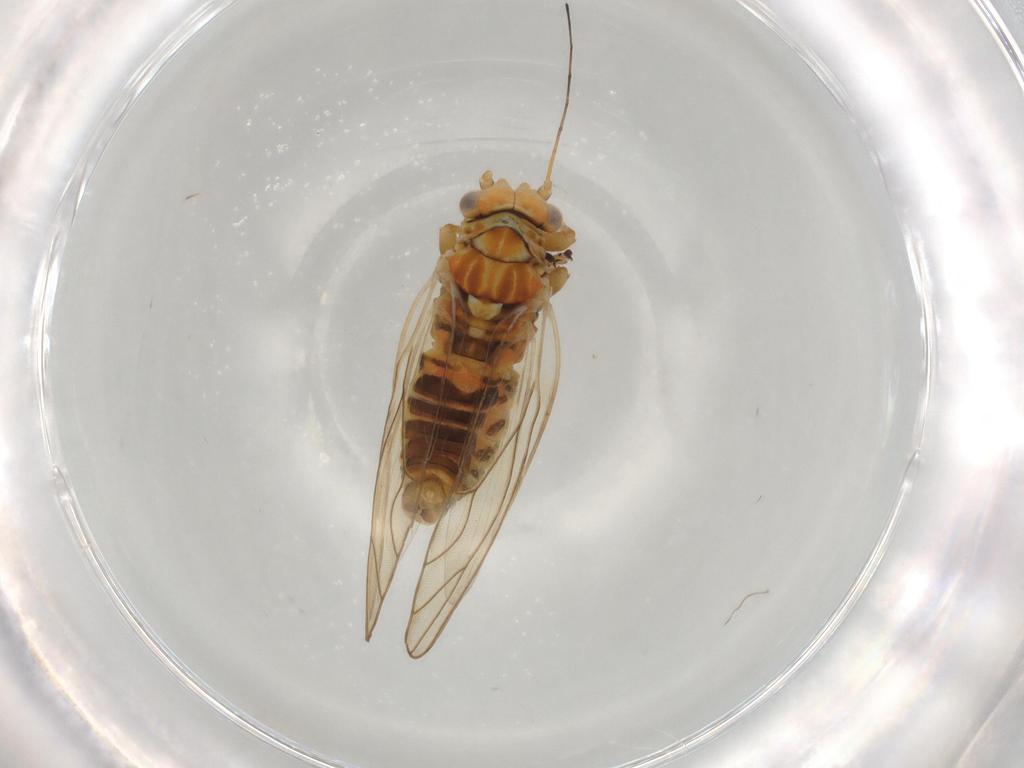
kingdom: Animalia
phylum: Arthropoda
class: Insecta
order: Hemiptera
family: Psyllidae
